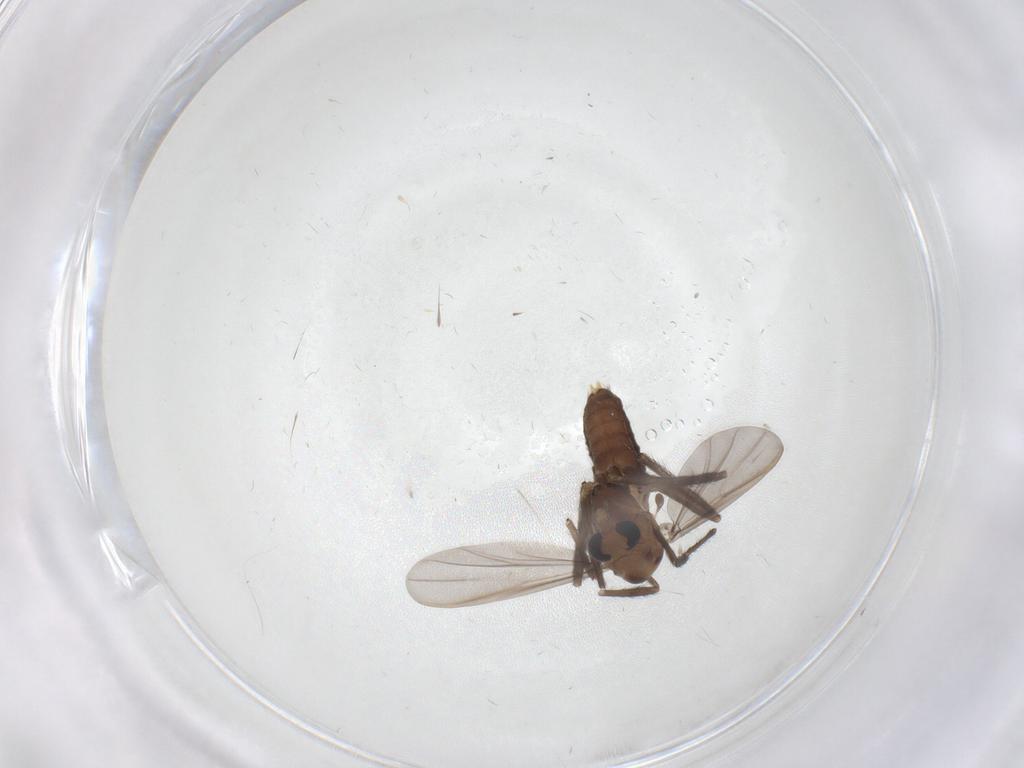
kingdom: Animalia
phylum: Arthropoda
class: Insecta
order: Diptera
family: Chironomidae
